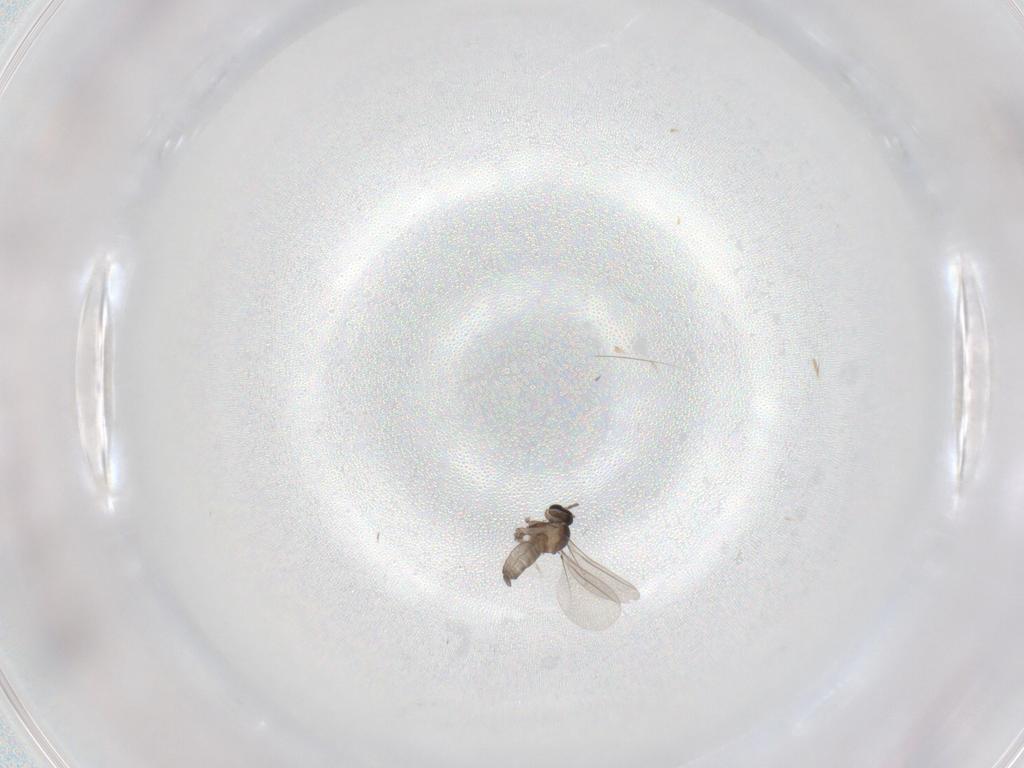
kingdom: Animalia
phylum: Arthropoda
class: Insecta
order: Diptera
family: Cecidomyiidae
